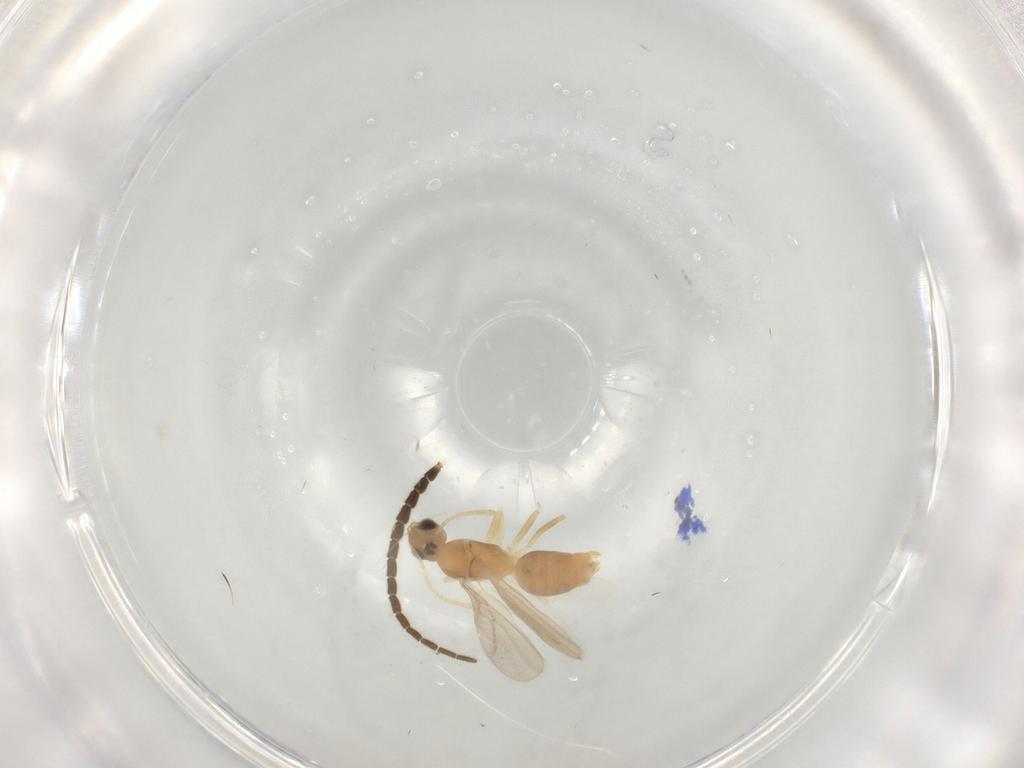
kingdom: Animalia
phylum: Arthropoda
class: Insecta
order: Hymenoptera
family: Formicidae
